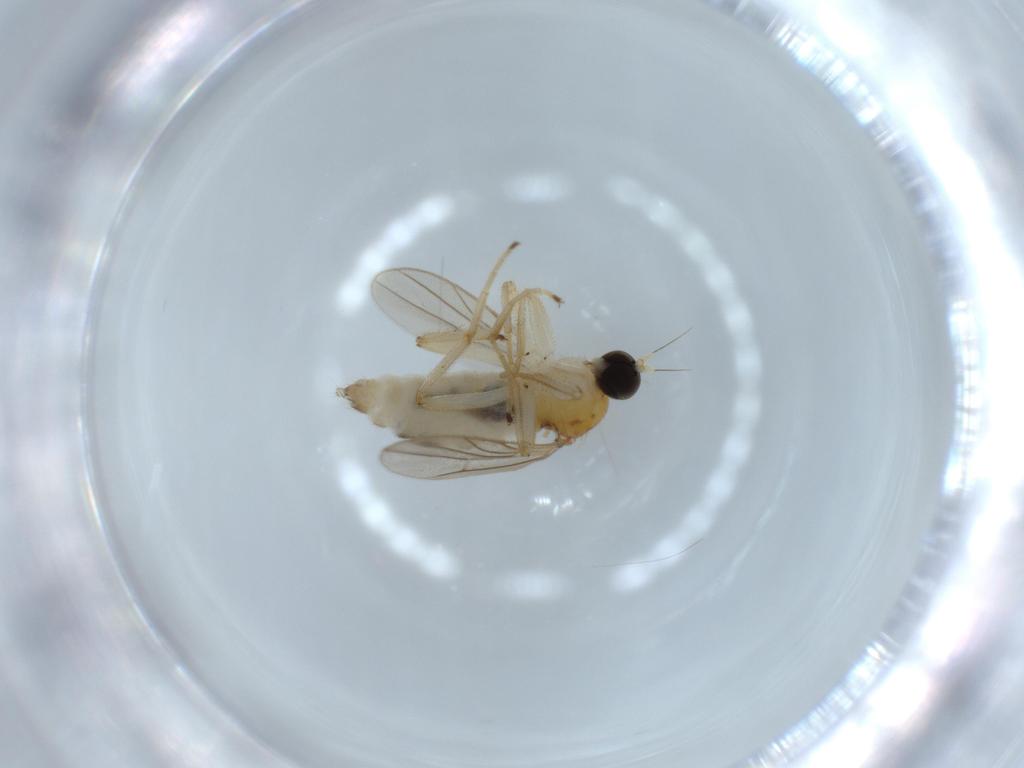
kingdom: Animalia
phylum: Arthropoda
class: Insecta
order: Diptera
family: Hybotidae
